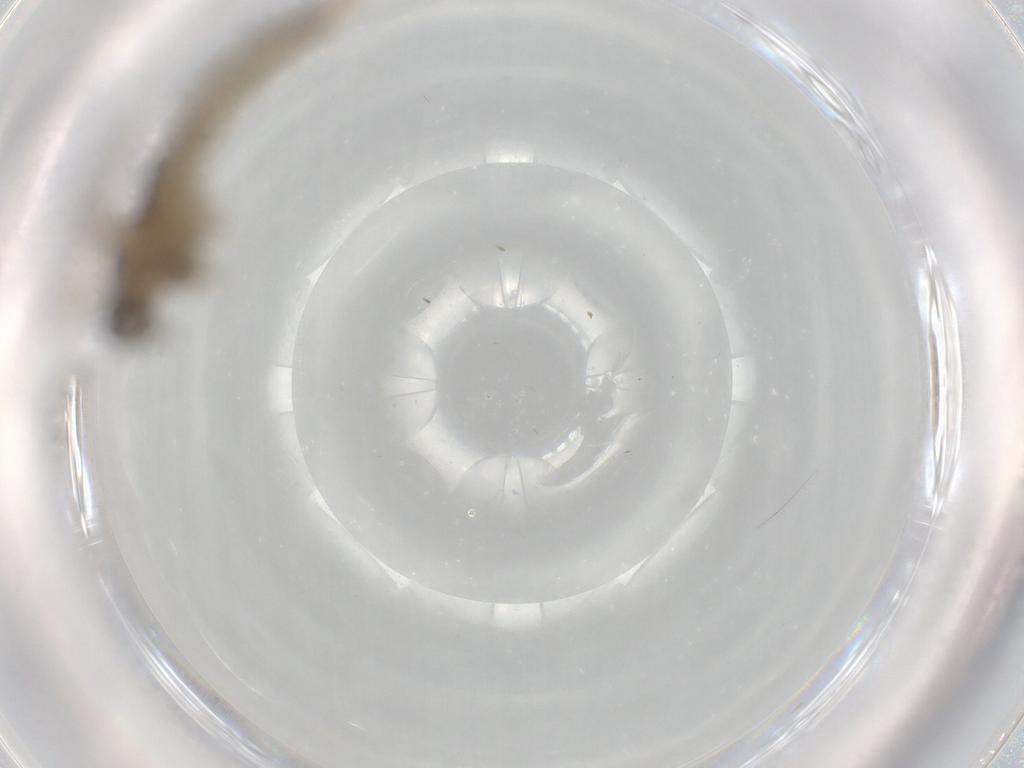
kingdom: Animalia
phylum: Arthropoda
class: Insecta
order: Diptera
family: Cecidomyiidae
